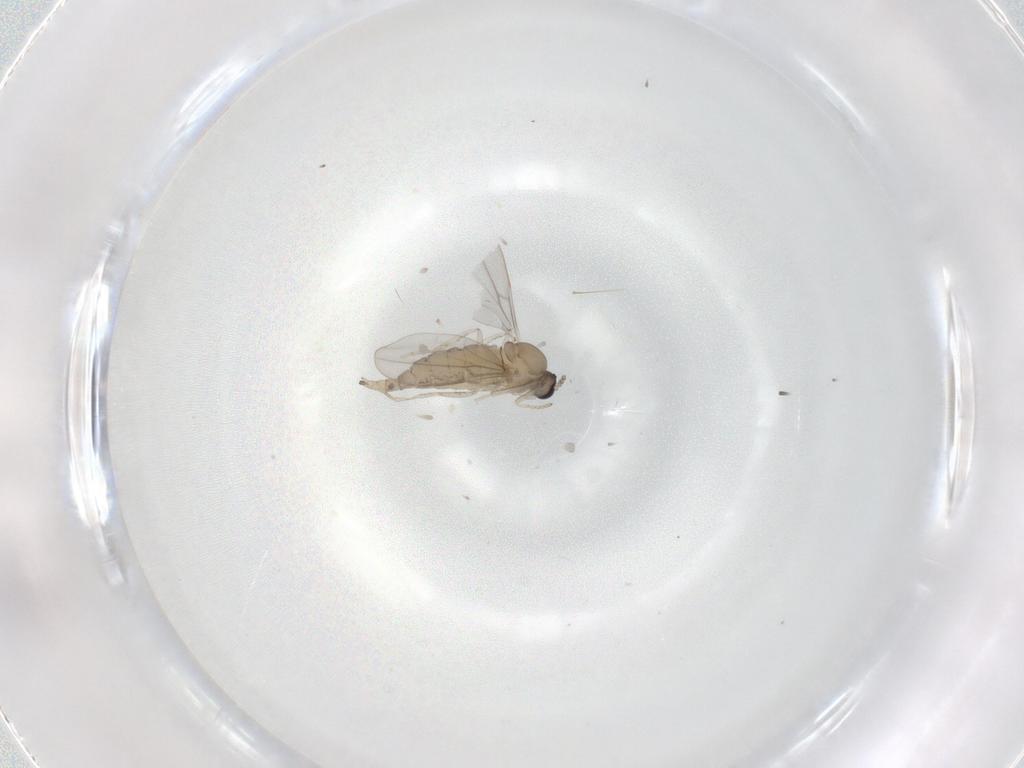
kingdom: Animalia
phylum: Arthropoda
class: Insecta
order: Diptera
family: Cecidomyiidae
